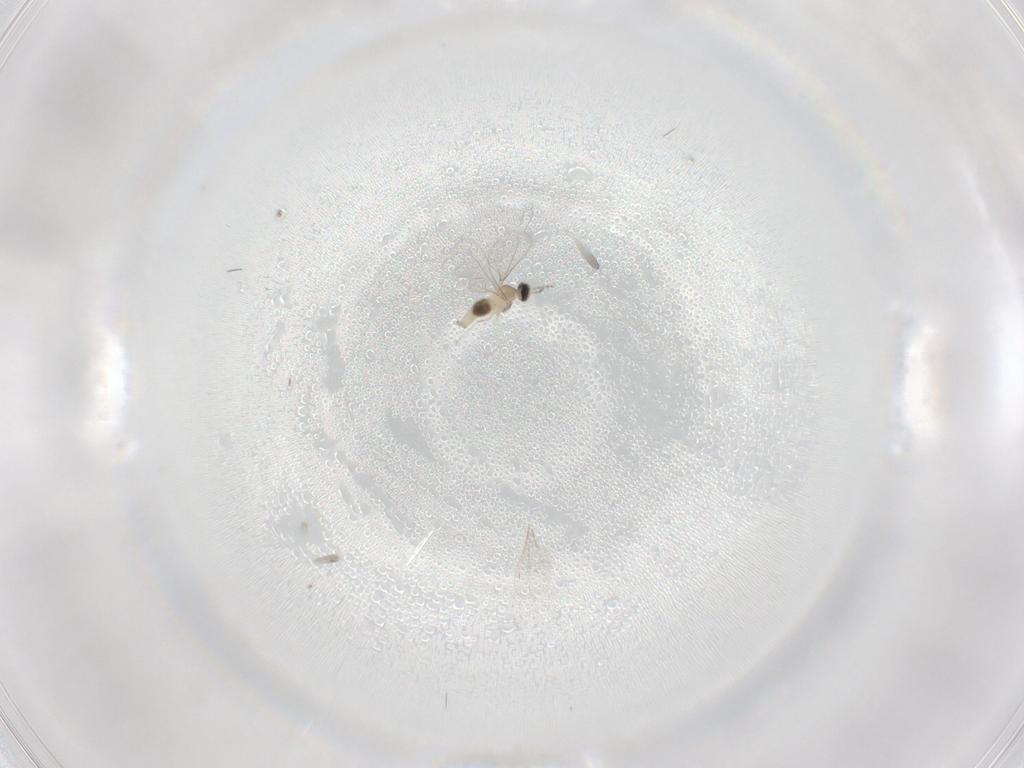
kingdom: Animalia
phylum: Arthropoda
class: Insecta
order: Diptera
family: Cecidomyiidae
